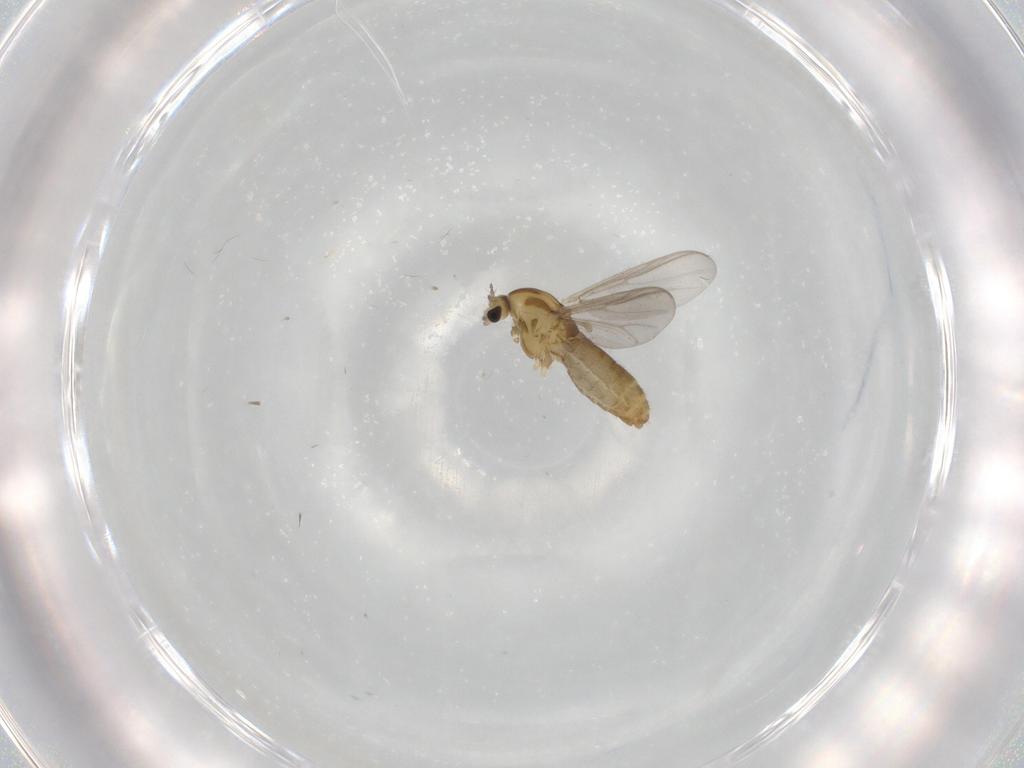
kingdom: Animalia
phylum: Arthropoda
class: Insecta
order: Diptera
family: Chironomidae
